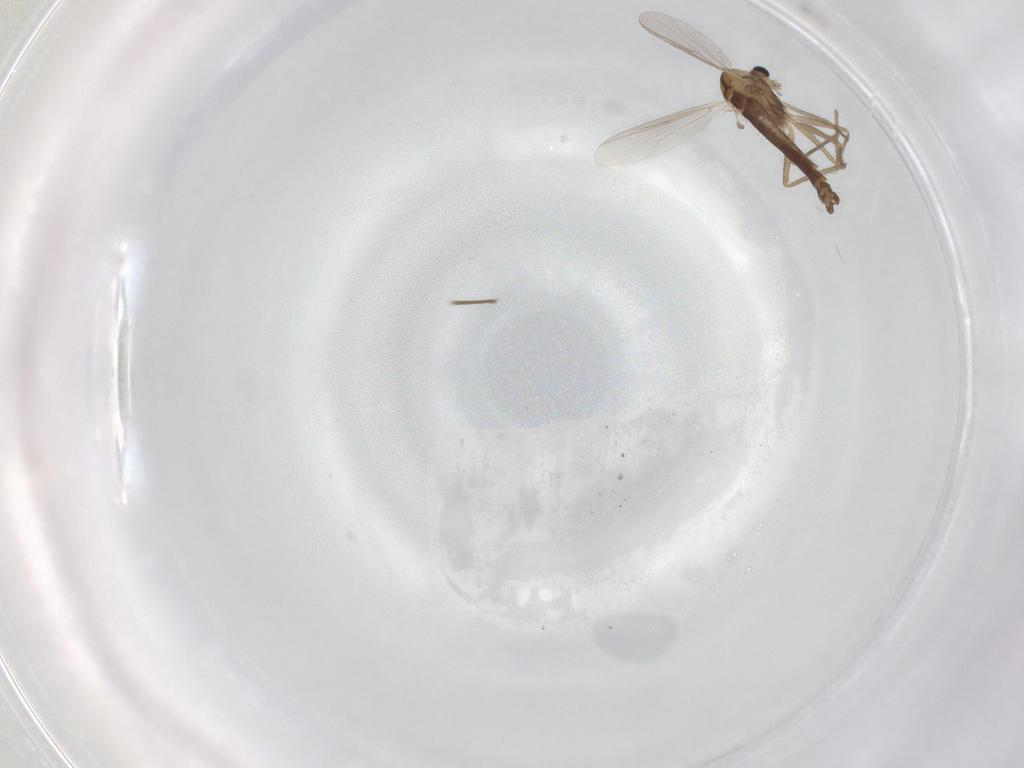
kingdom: Animalia
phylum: Arthropoda
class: Insecta
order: Diptera
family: Chironomidae
